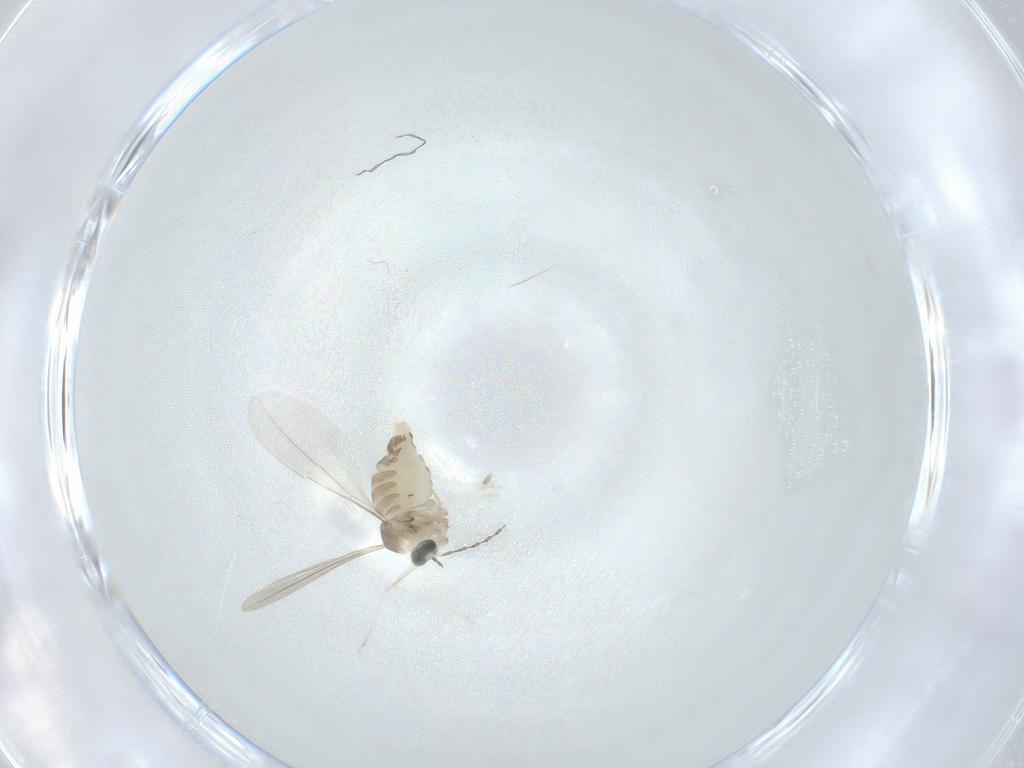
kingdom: Animalia
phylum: Arthropoda
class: Insecta
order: Diptera
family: Cecidomyiidae
